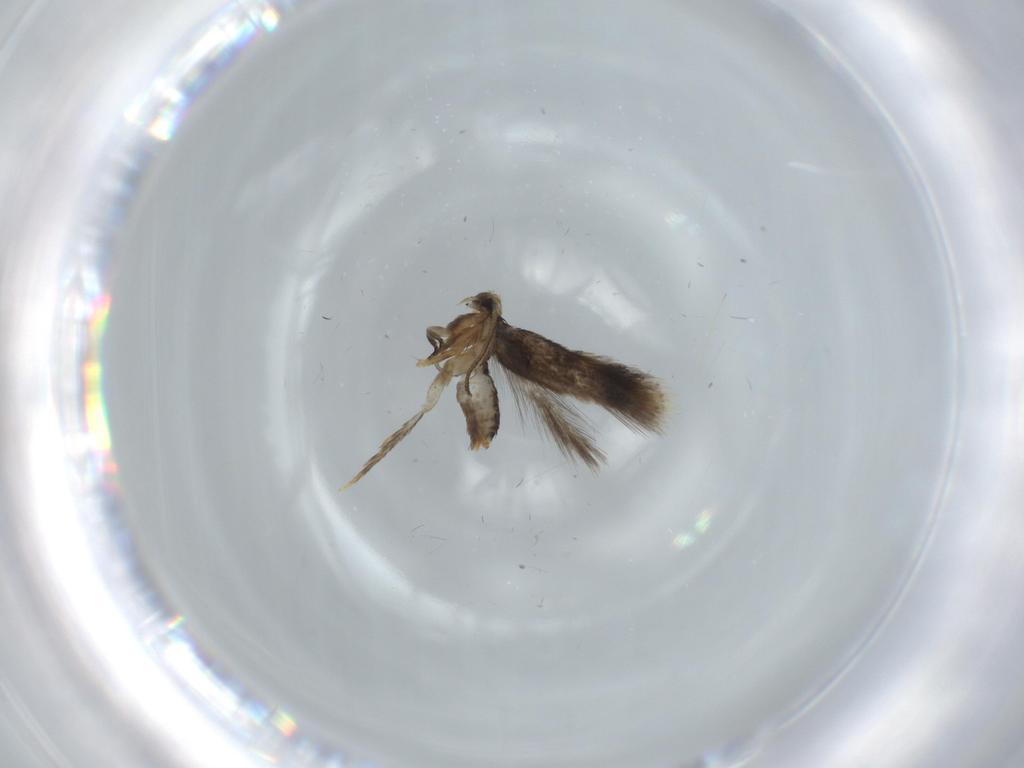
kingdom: Animalia
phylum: Arthropoda
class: Insecta
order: Lepidoptera
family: Nepticulidae
